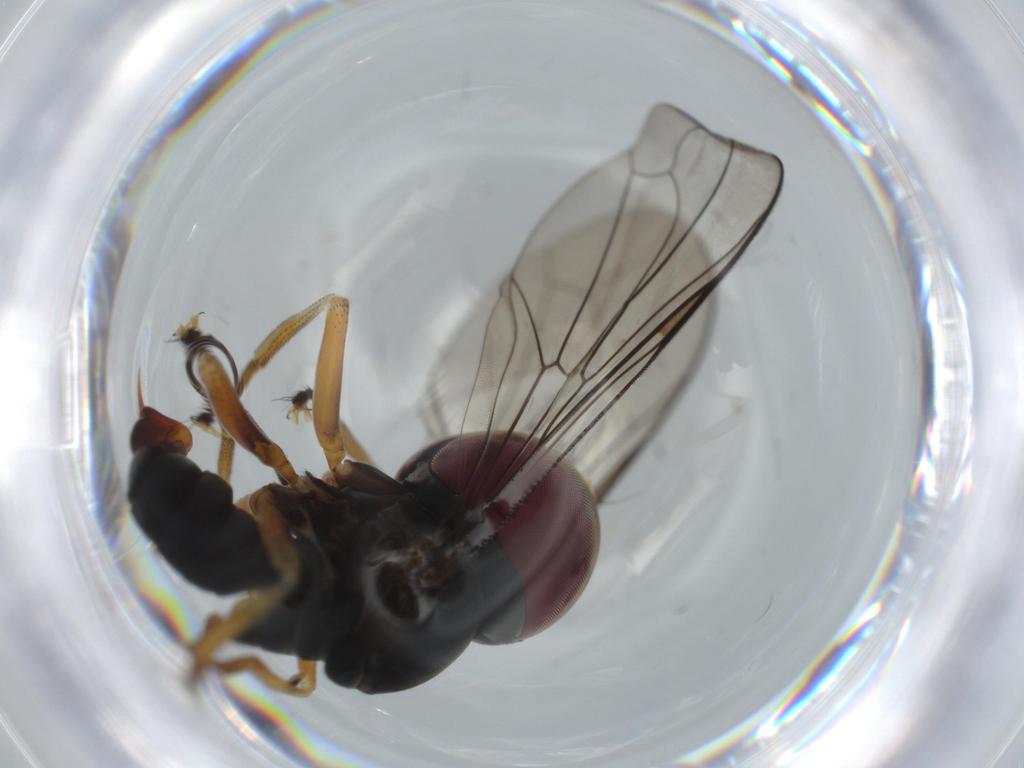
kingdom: Animalia
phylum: Arthropoda
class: Insecta
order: Diptera
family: Pipunculidae
